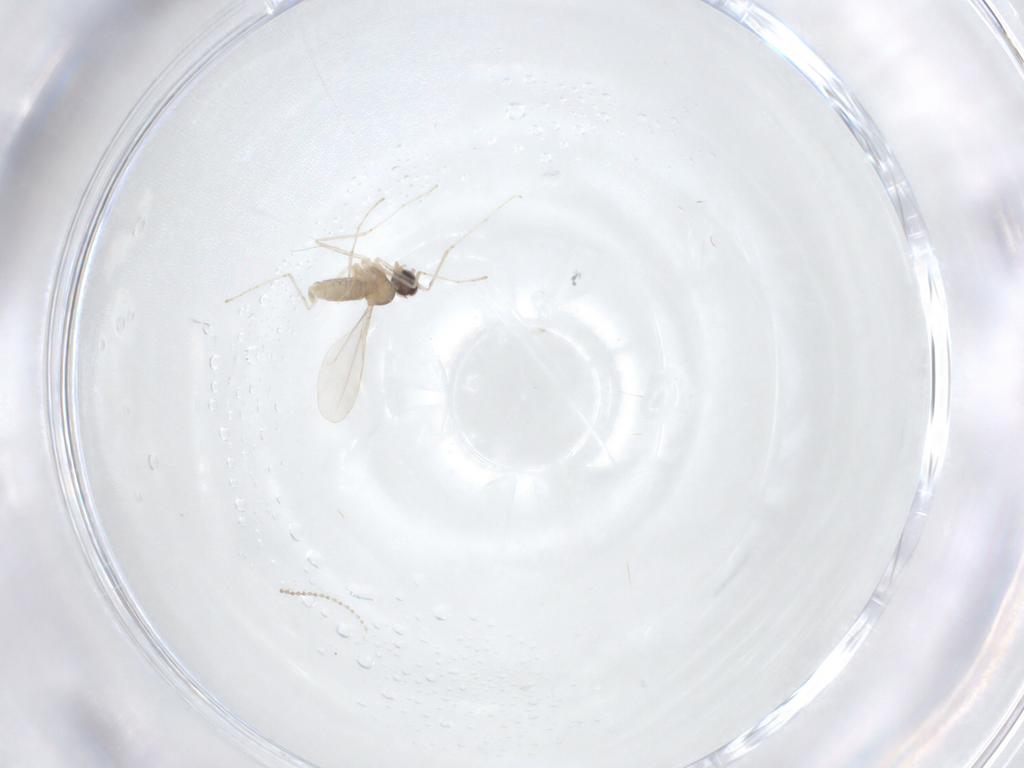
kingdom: Animalia
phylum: Arthropoda
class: Insecta
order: Diptera
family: Cecidomyiidae
